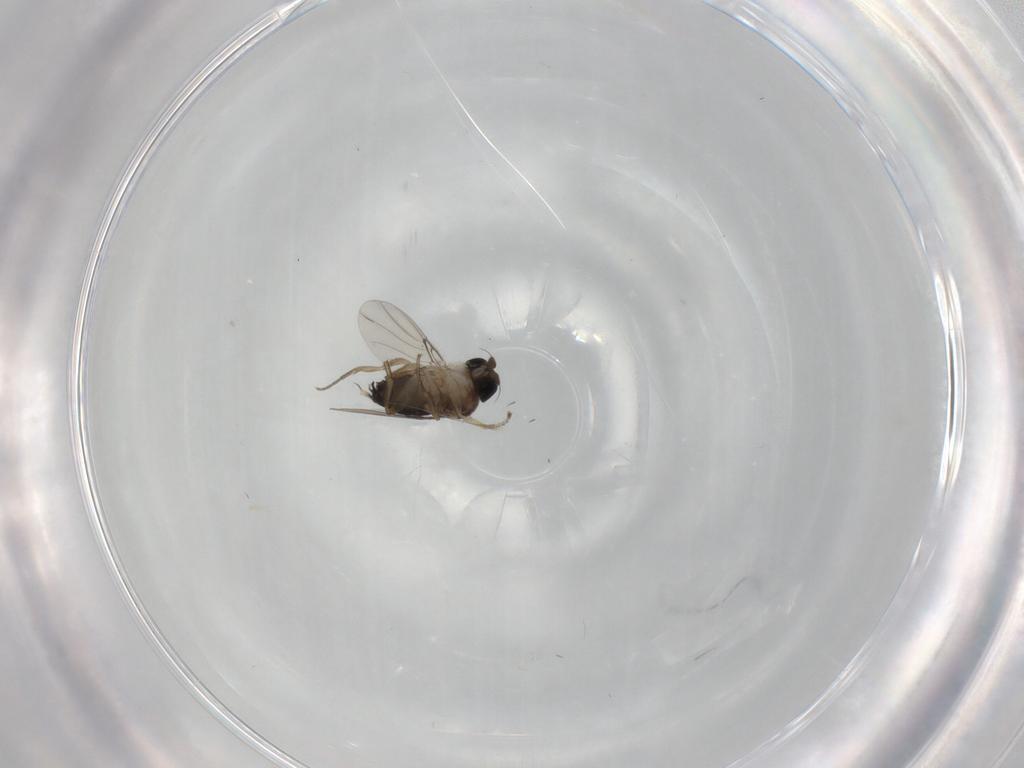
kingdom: Animalia
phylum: Arthropoda
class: Insecta
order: Diptera
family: Phoridae
